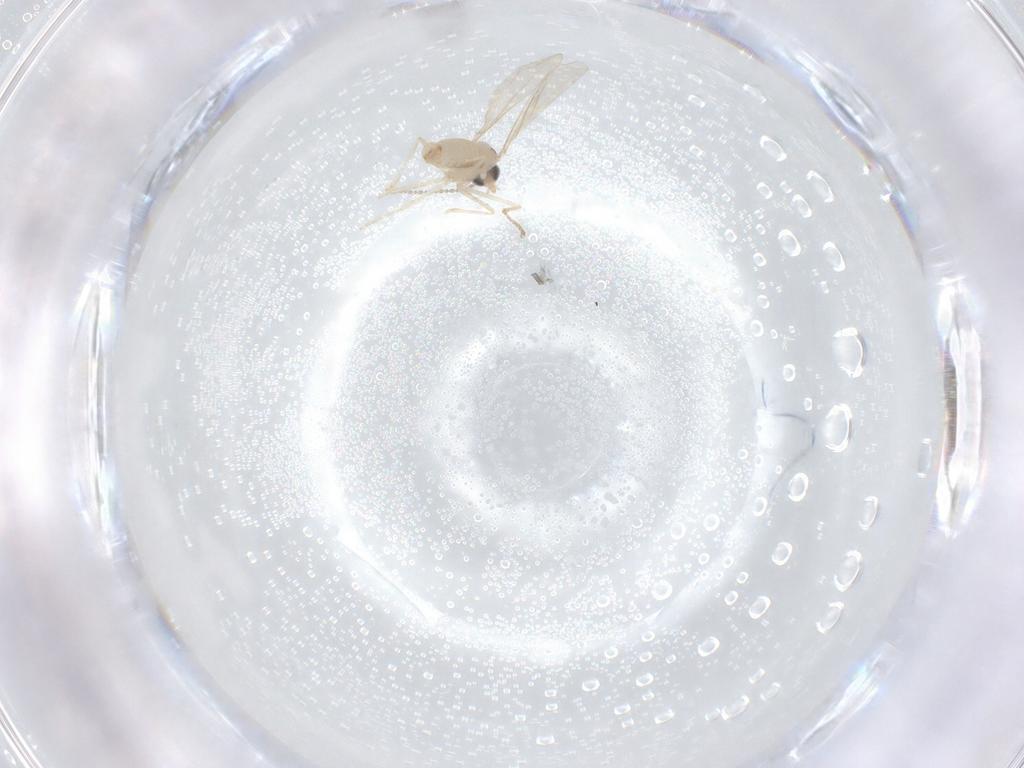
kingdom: Animalia
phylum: Arthropoda
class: Insecta
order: Diptera
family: Cecidomyiidae
